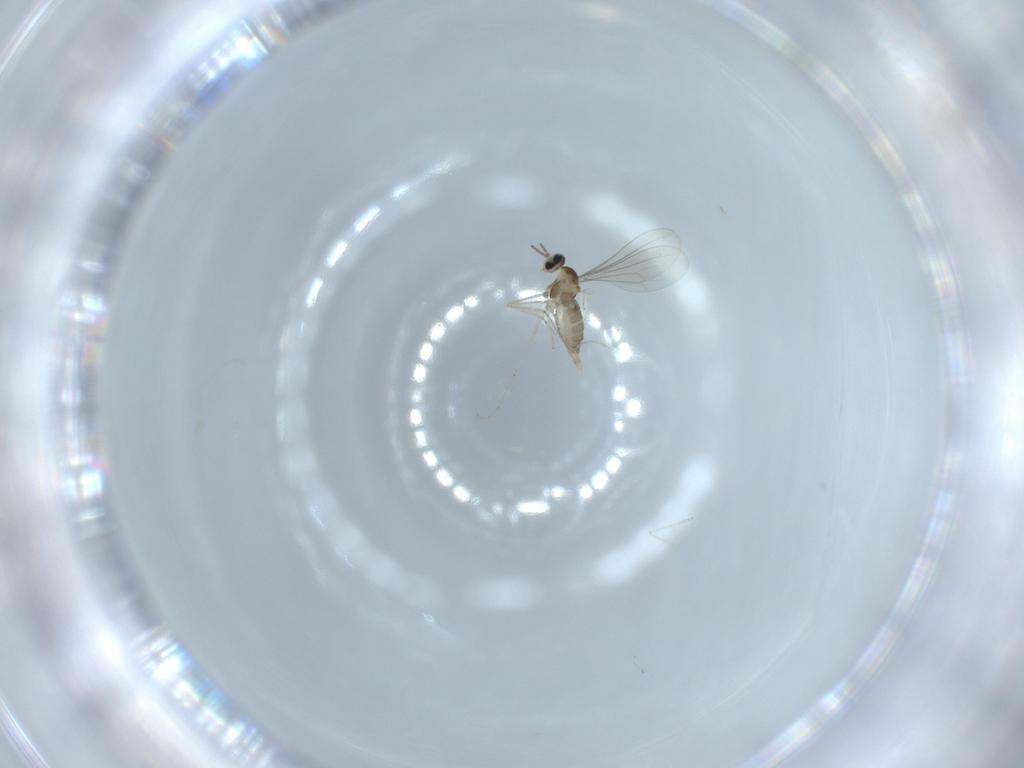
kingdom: Animalia
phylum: Arthropoda
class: Insecta
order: Diptera
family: Cecidomyiidae
